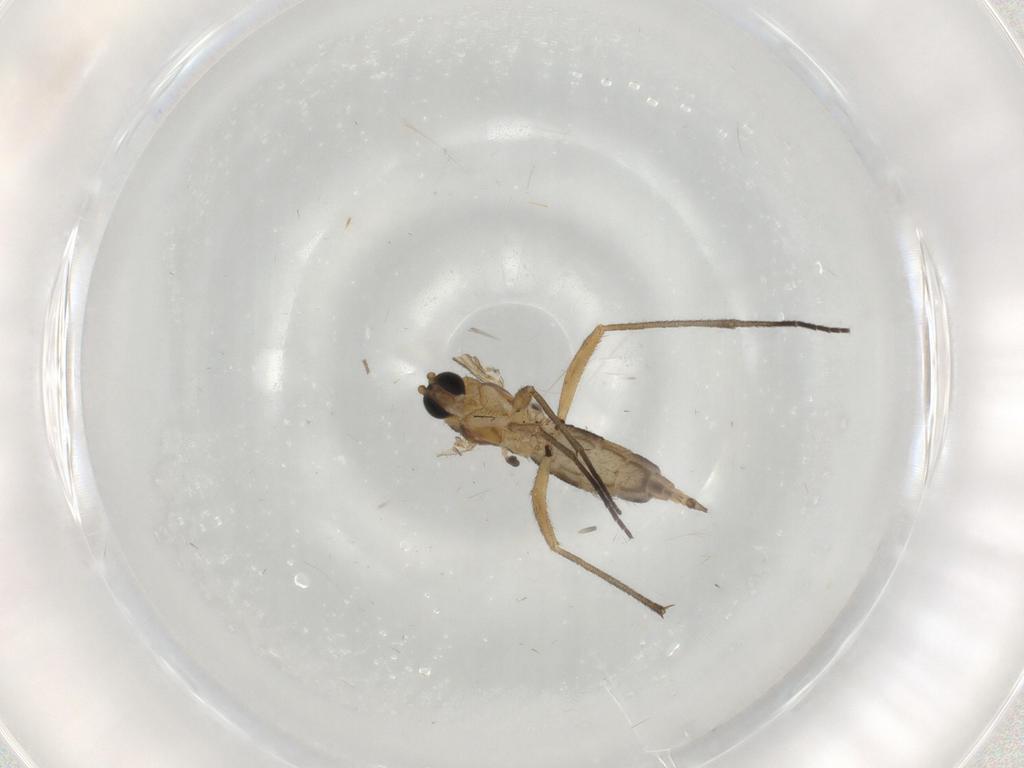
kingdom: Animalia
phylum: Arthropoda
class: Insecta
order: Diptera
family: Sciaridae
